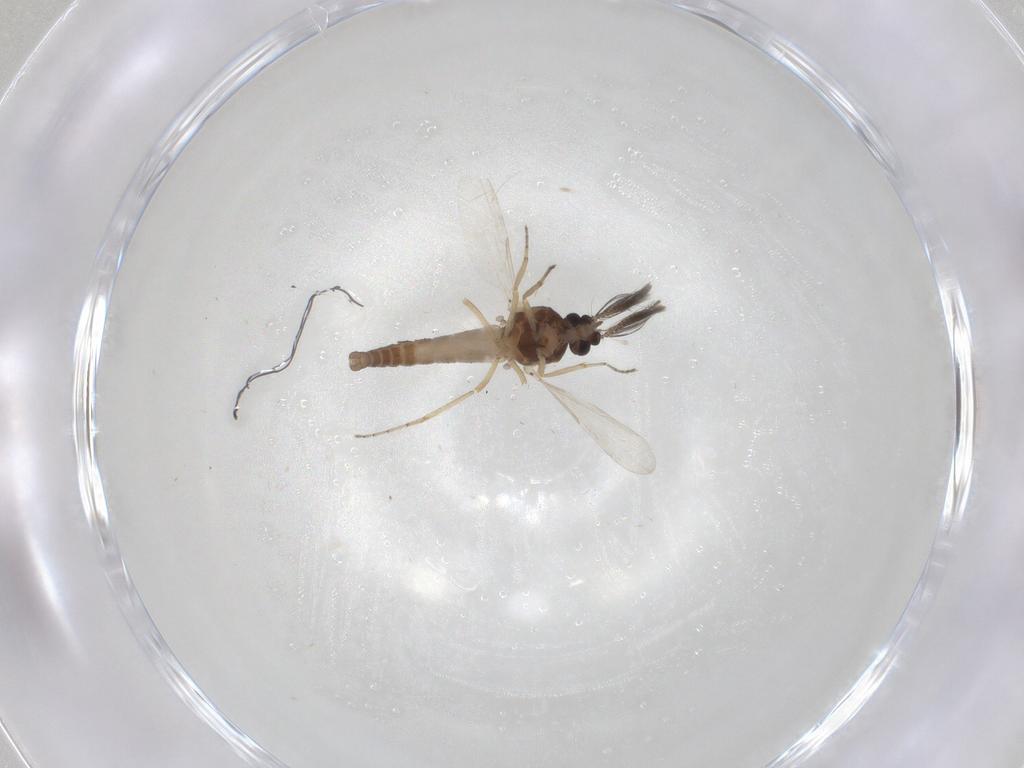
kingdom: Animalia
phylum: Arthropoda
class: Insecta
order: Diptera
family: Ceratopogonidae
